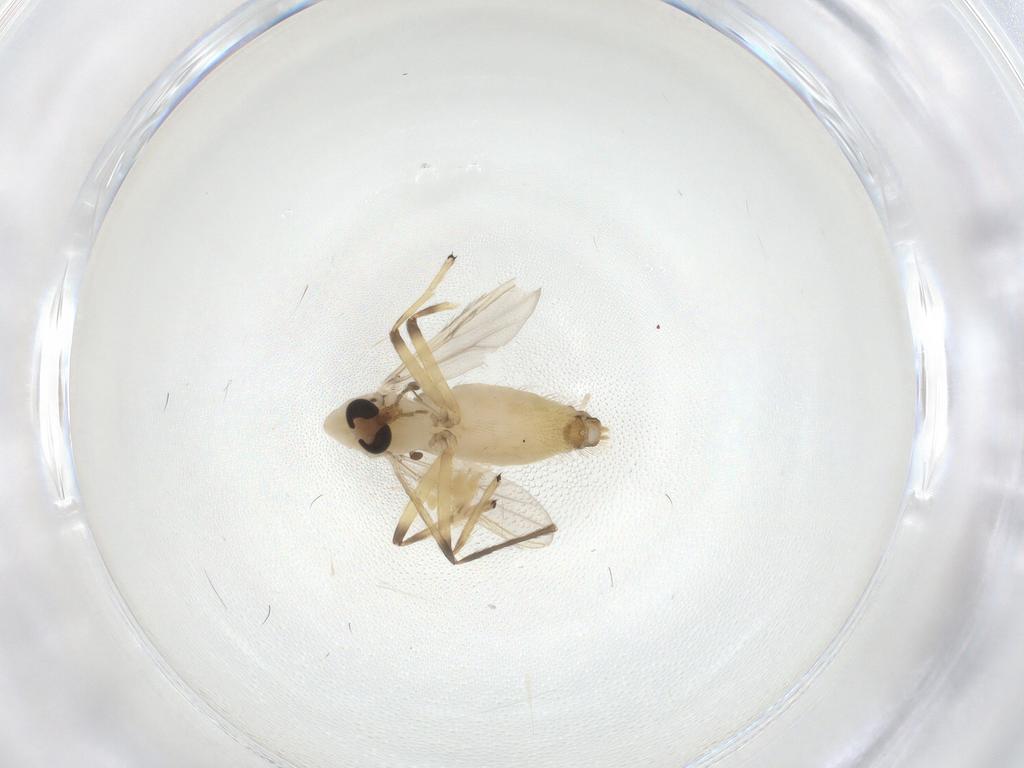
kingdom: Animalia
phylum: Arthropoda
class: Insecta
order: Diptera
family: Chironomidae
